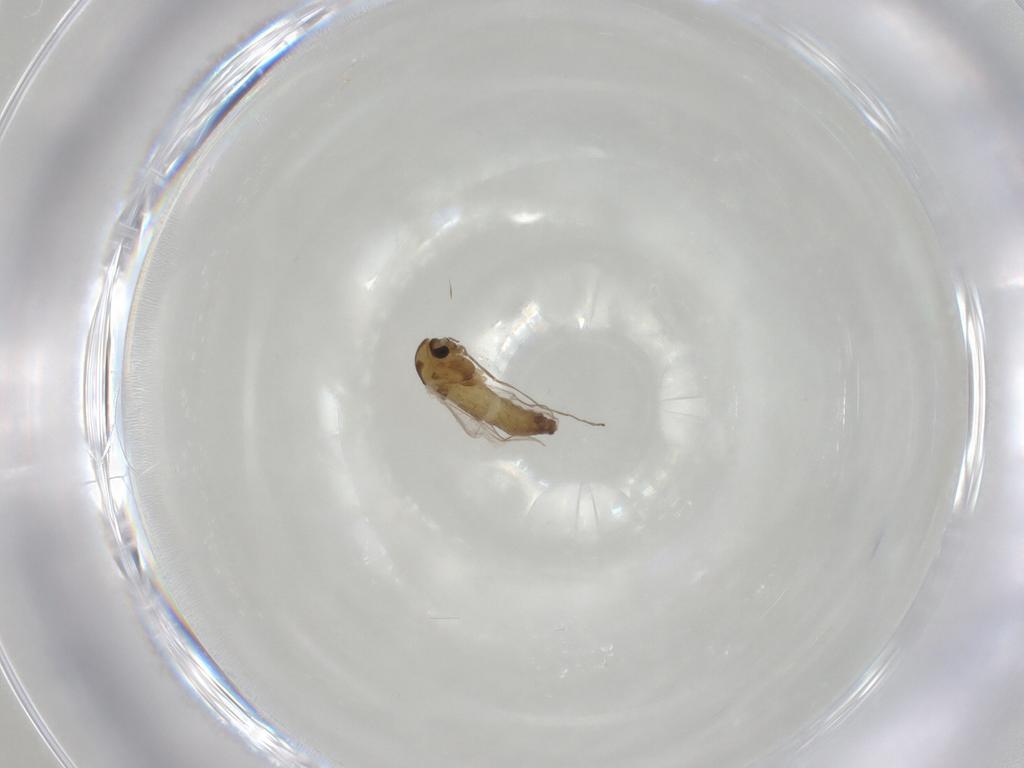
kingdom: Animalia
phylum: Arthropoda
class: Insecta
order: Diptera
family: Chironomidae
